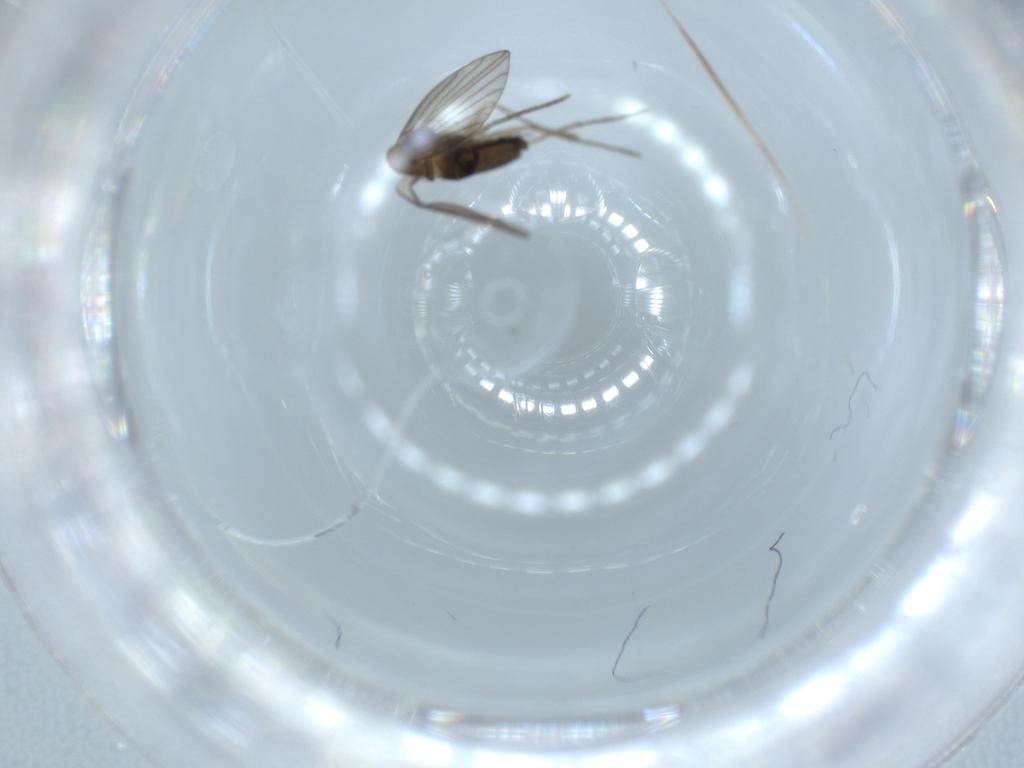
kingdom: Animalia
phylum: Arthropoda
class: Insecta
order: Diptera
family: Psychodidae
